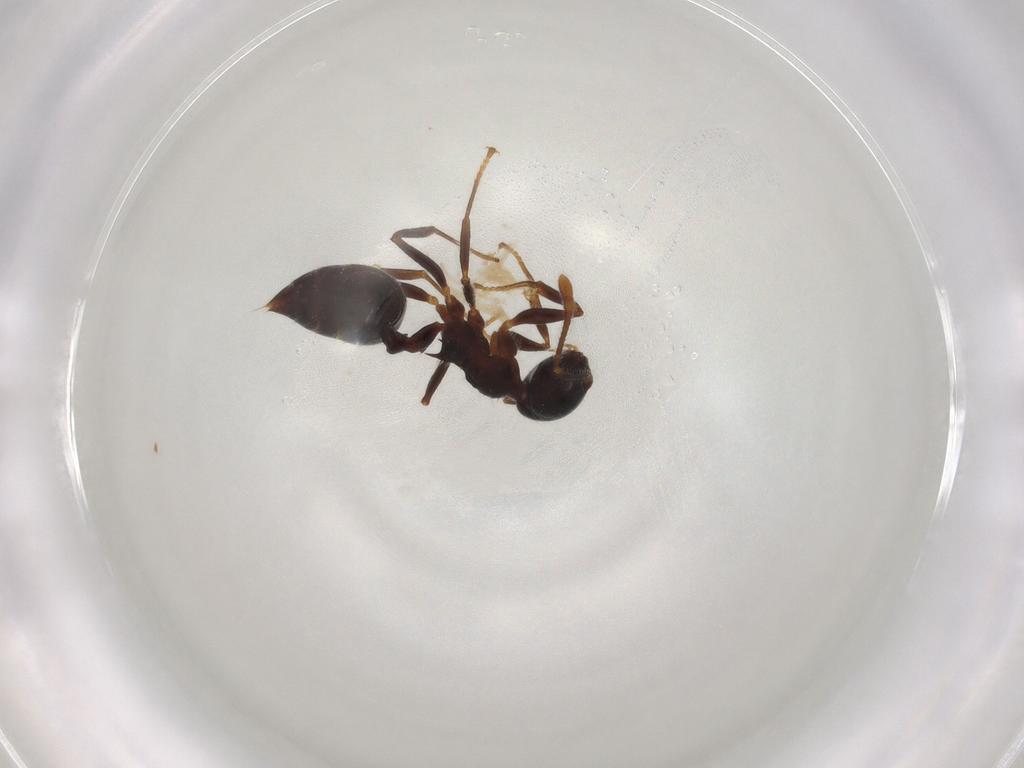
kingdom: Animalia
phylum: Arthropoda
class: Insecta
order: Hymenoptera
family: Formicidae
